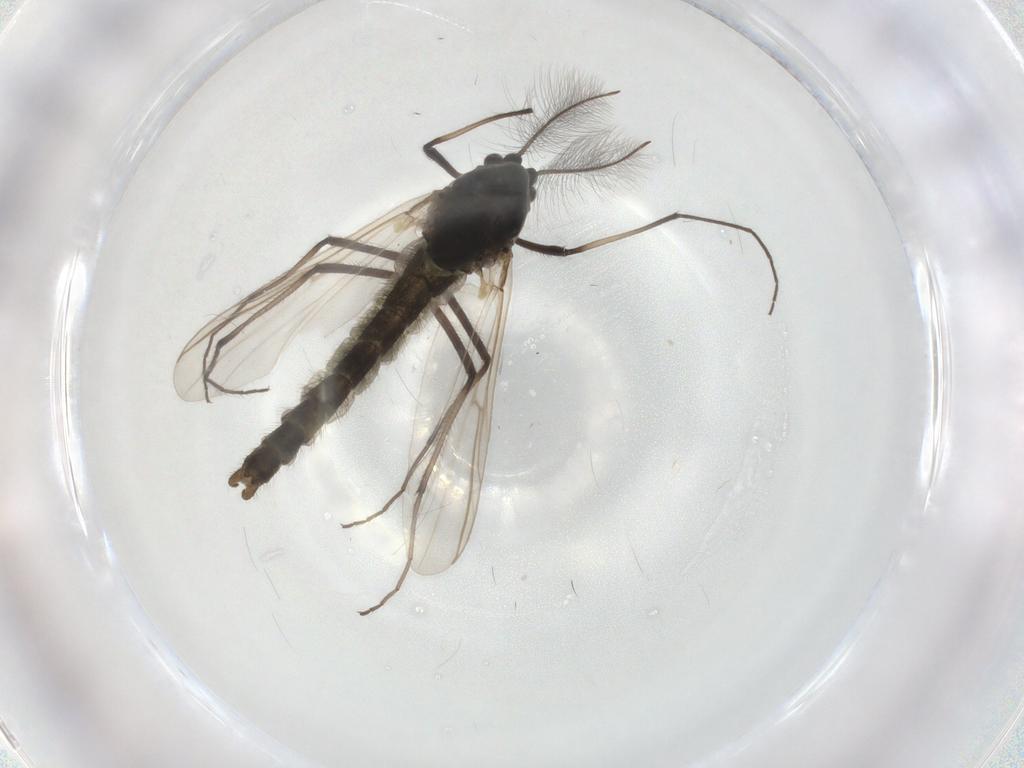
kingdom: Animalia
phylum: Arthropoda
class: Insecta
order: Diptera
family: Chironomidae
